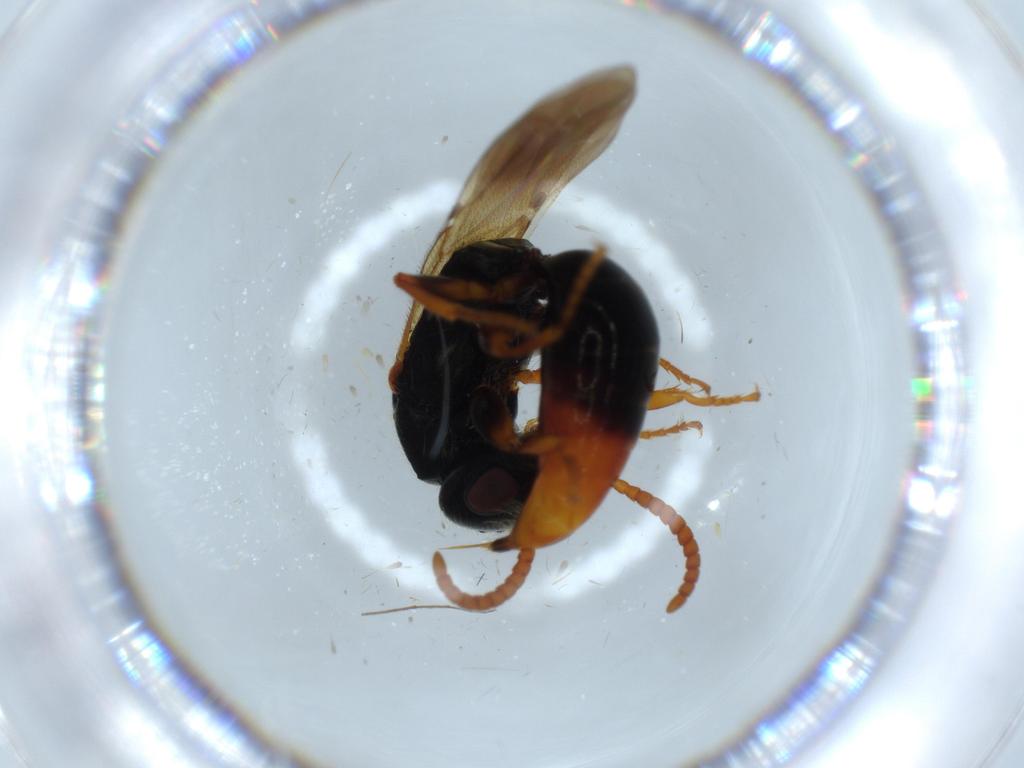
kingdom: Animalia
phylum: Arthropoda
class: Insecta
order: Hymenoptera
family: Bethylidae
